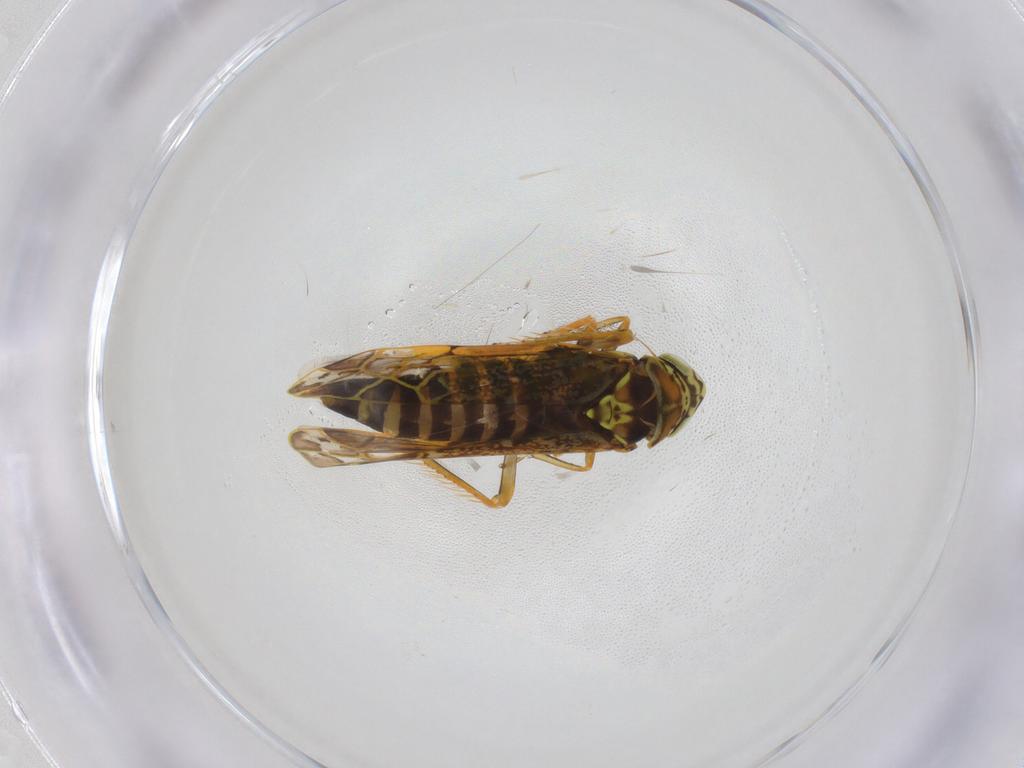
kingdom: Animalia
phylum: Arthropoda
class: Insecta
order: Hemiptera
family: Cicadellidae
